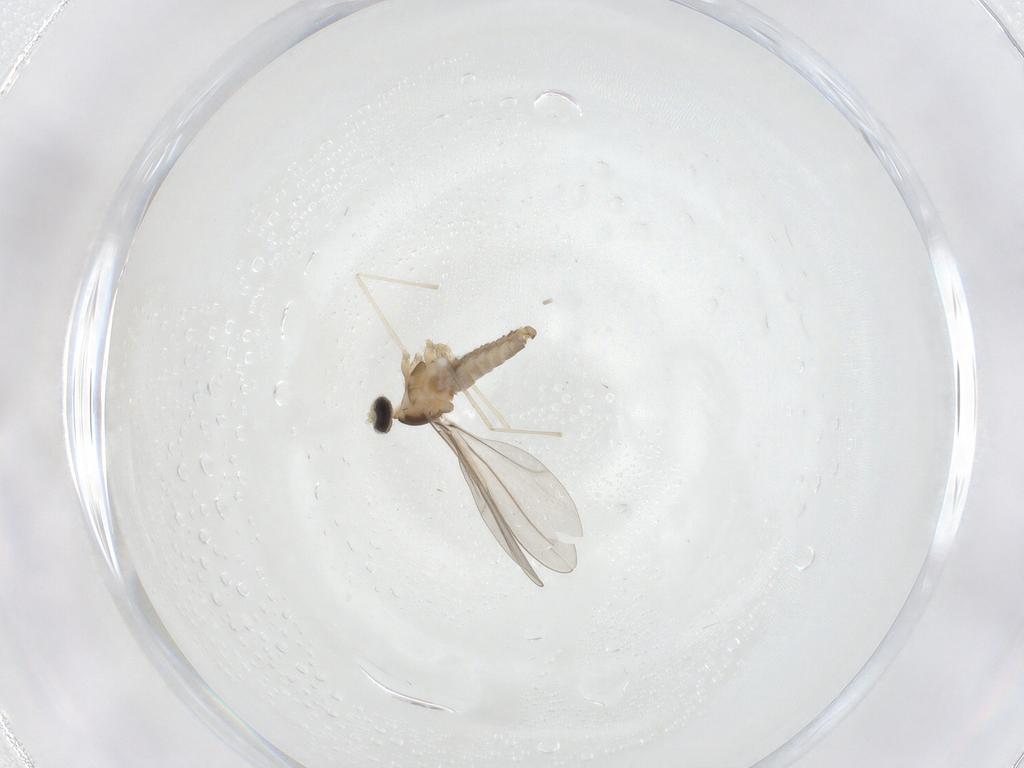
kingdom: Animalia
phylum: Arthropoda
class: Insecta
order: Diptera
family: Cecidomyiidae
